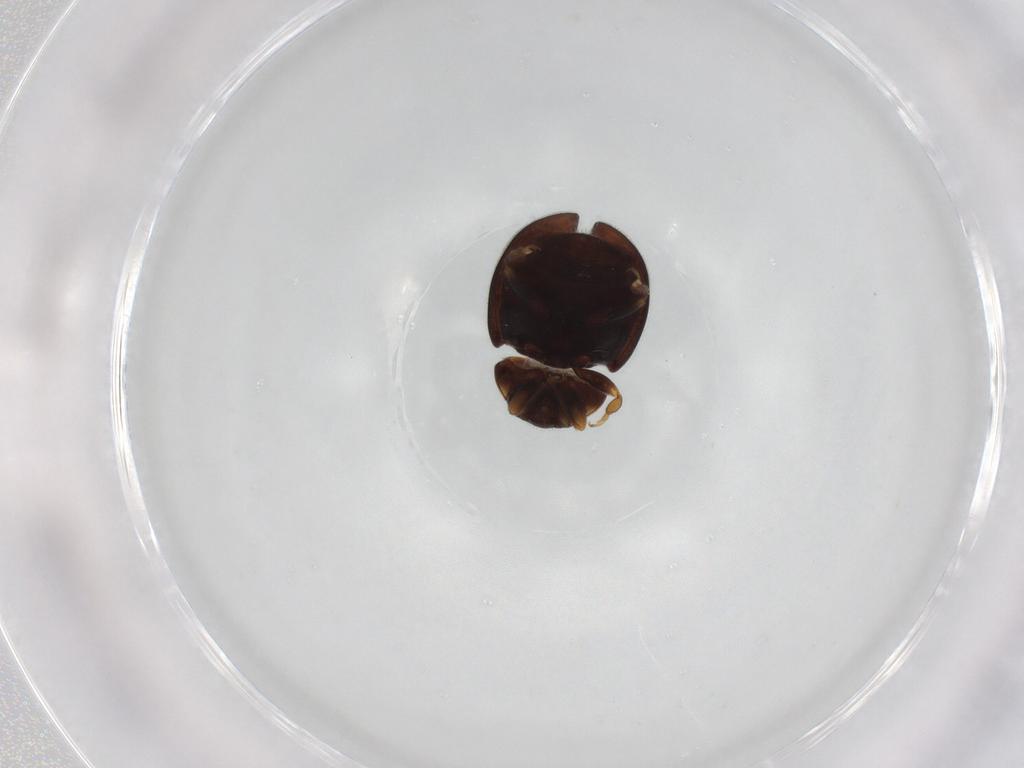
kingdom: Animalia
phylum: Arthropoda
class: Insecta
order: Coleoptera
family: Coccinellidae
